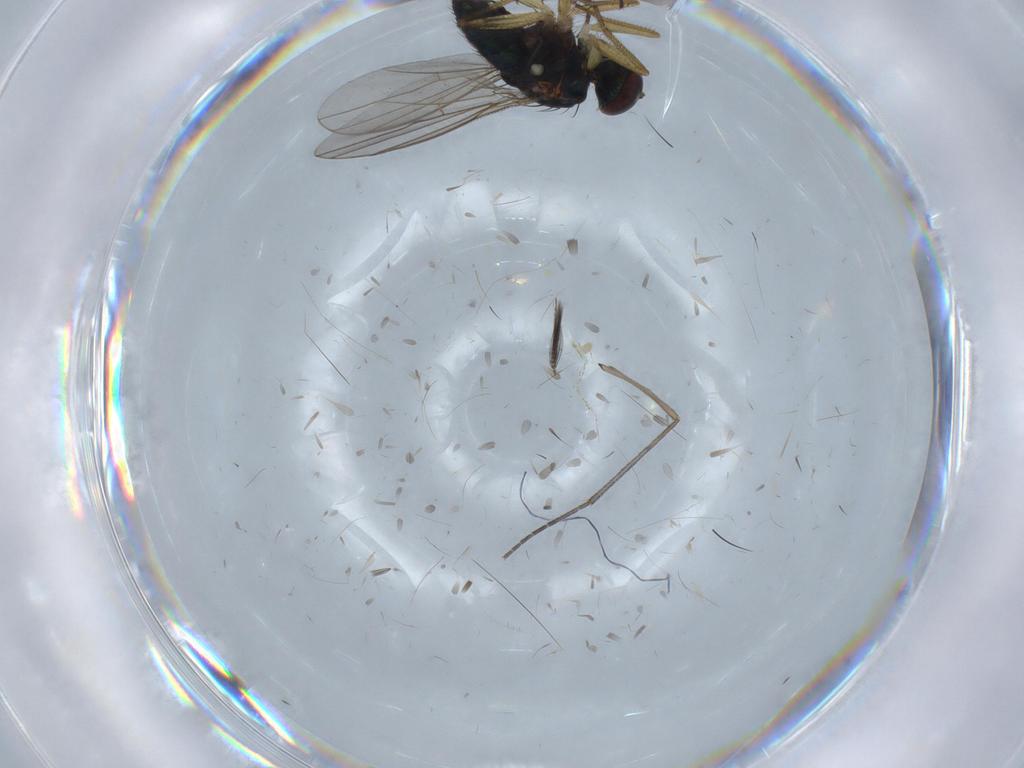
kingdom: Animalia
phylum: Arthropoda
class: Insecta
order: Diptera
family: Sciaridae
